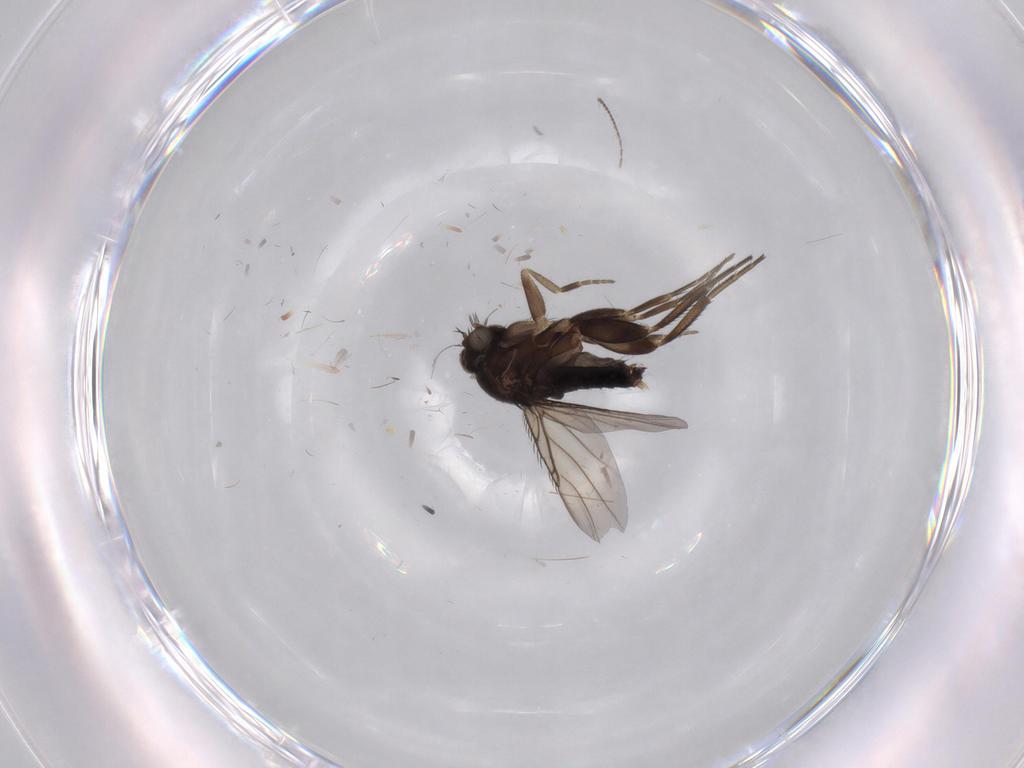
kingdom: Animalia
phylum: Arthropoda
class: Insecta
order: Diptera
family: Phoridae
